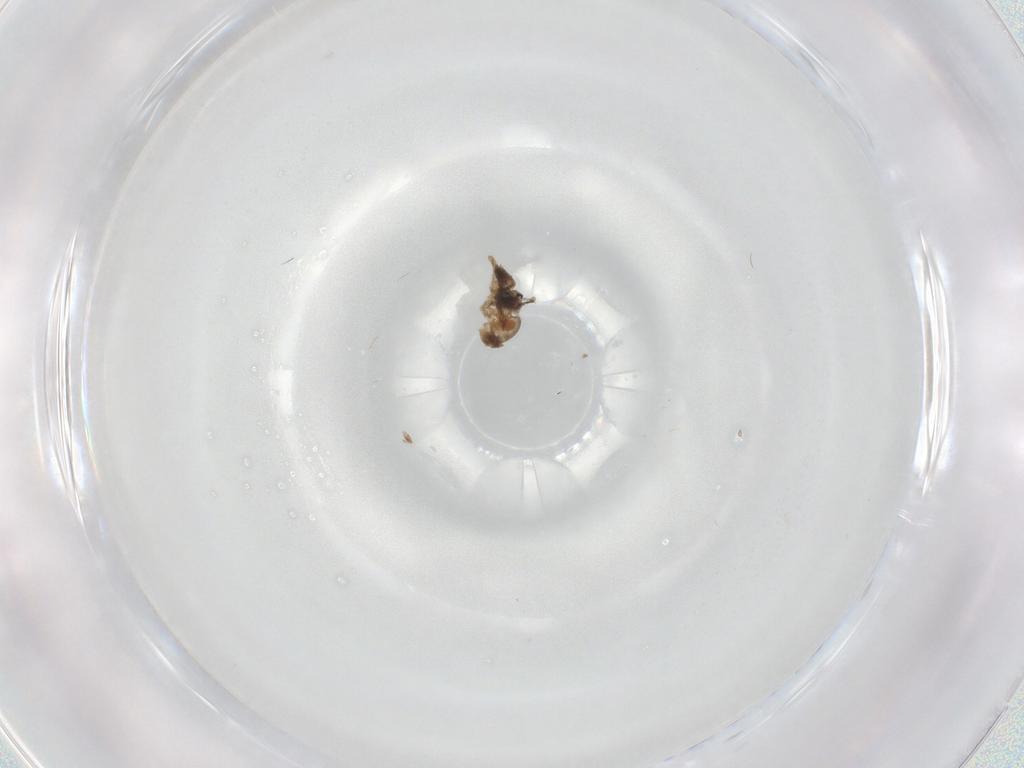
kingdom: Animalia
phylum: Arthropoda
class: Insecta
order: Diptera
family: Cecidomyiidae
